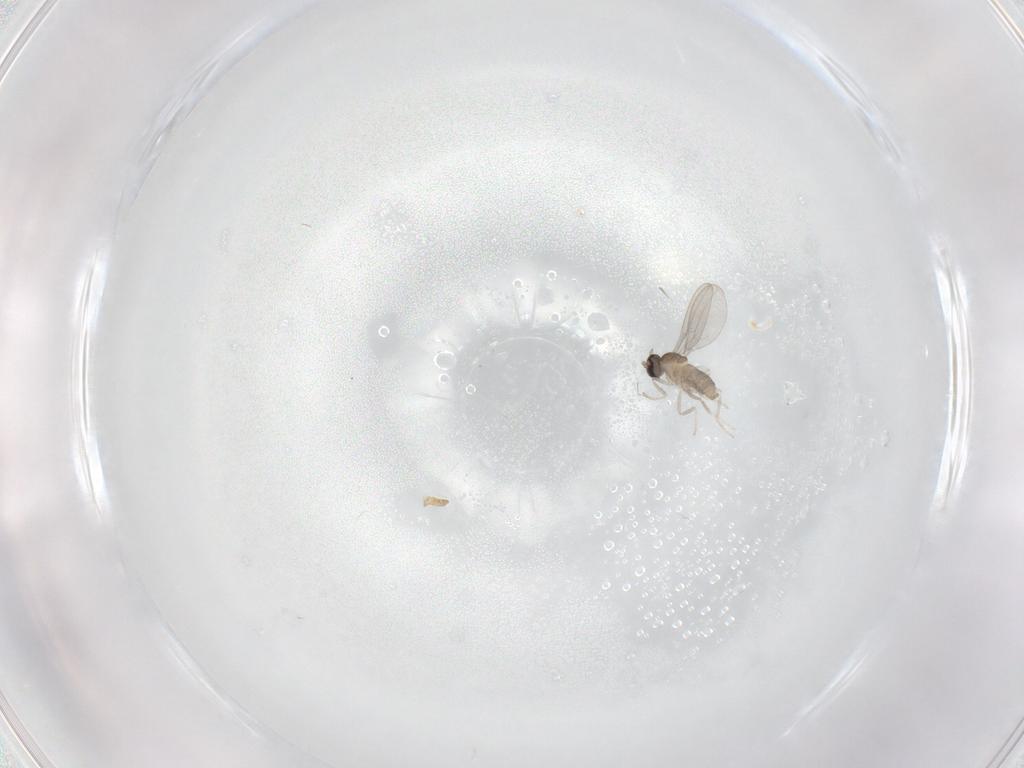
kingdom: Animalia
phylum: Arthropoda
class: Insecta
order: Diptera
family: Cecidomyiidae
